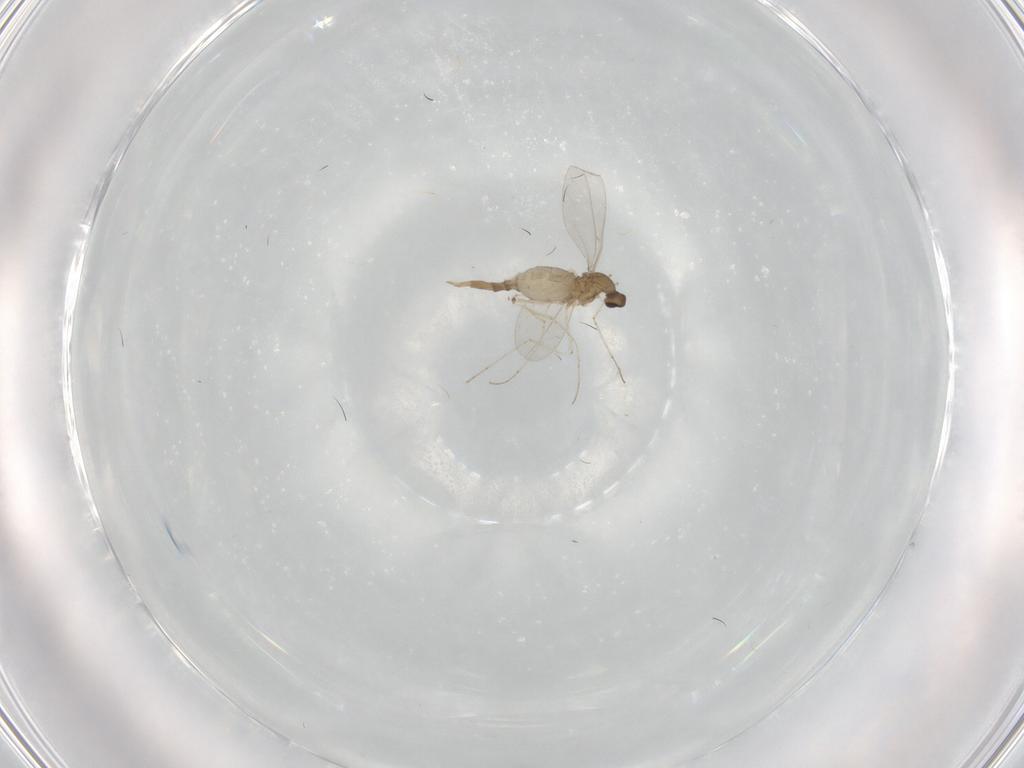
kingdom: Animalia
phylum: Arthropoda
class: Insecta
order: Diptera
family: Cecidomyiidae
